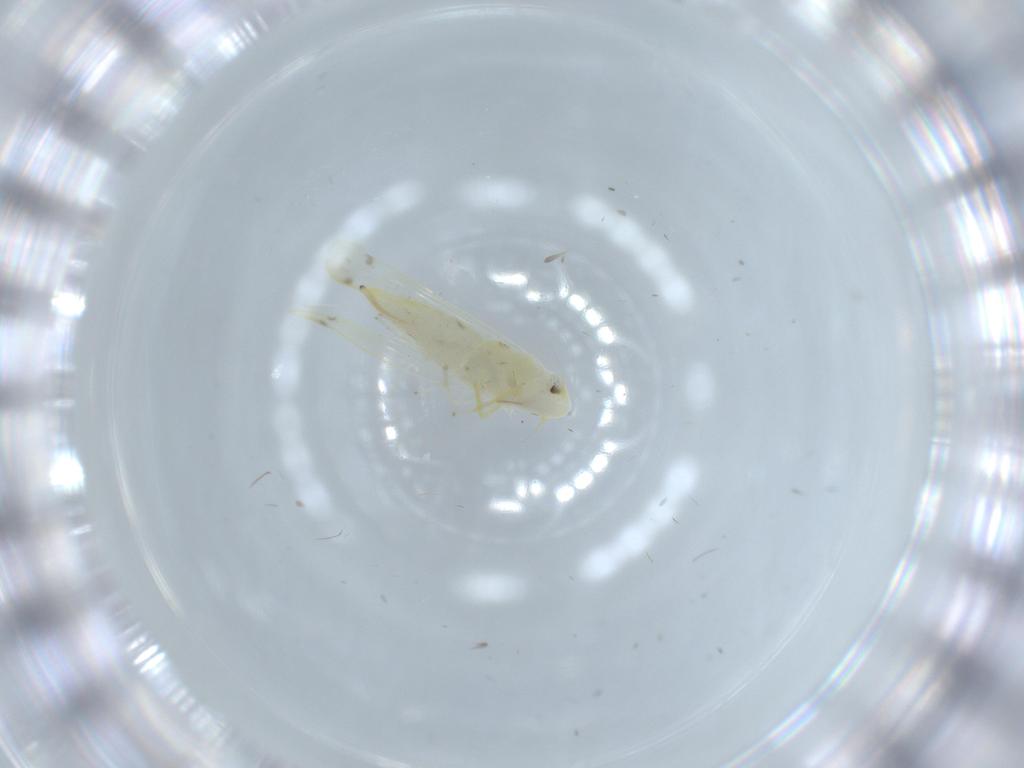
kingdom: Animalia
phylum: Arthropoda
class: Insecta
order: Hemiptera
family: Cicadellidae
